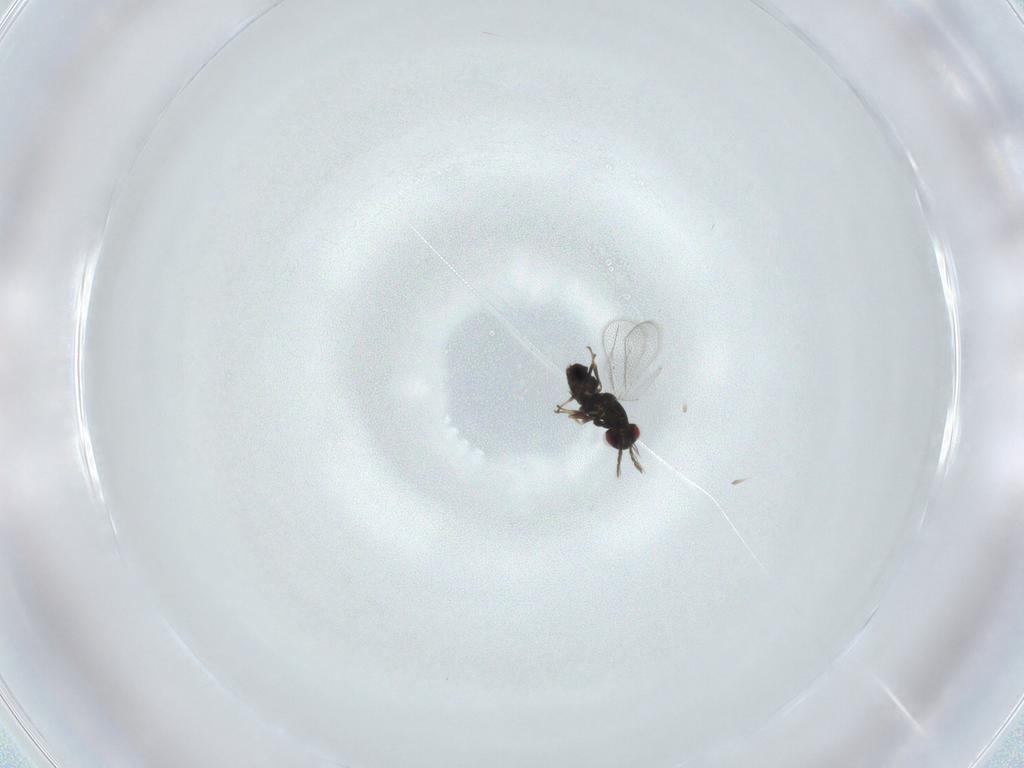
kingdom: Animalia
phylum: Arthropoda
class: Insecta
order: Hymenoptera
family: Eulophidae
